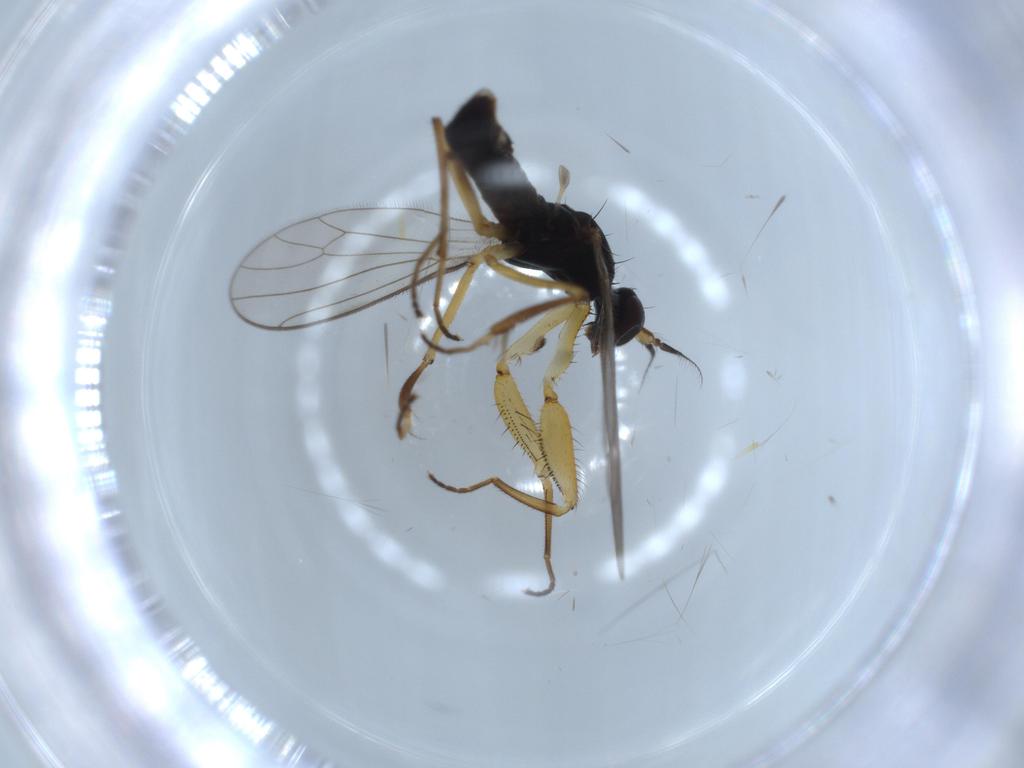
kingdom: Animalia
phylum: Arthropoda
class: Insecta
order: Diptera
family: Empididae
